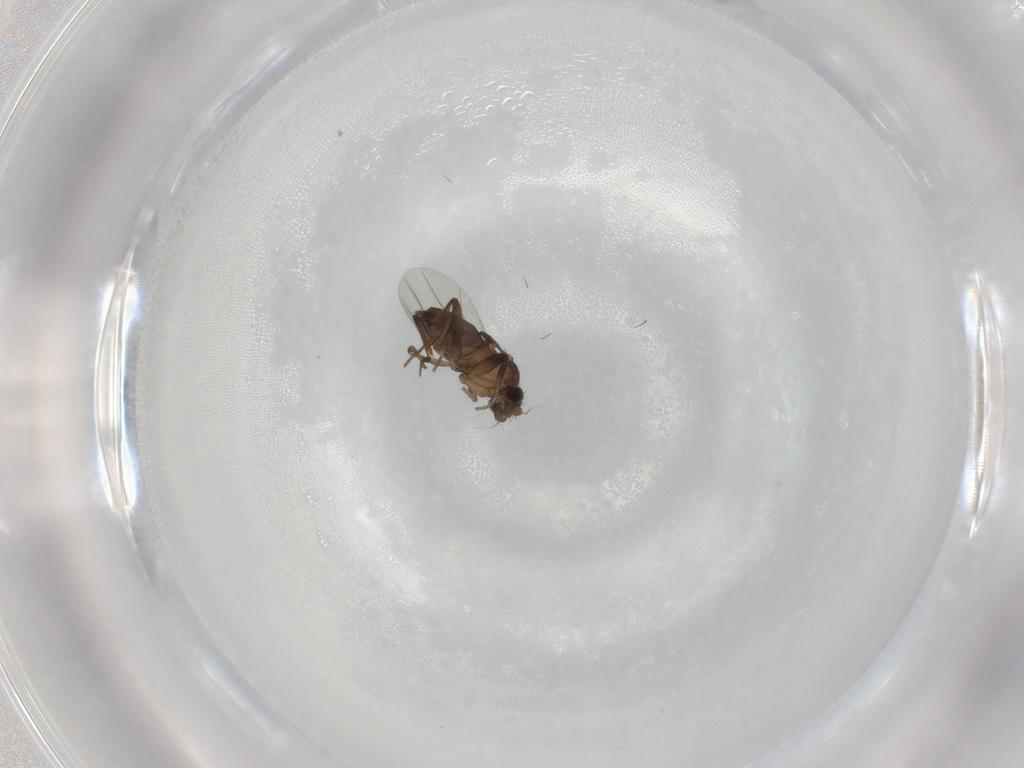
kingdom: Animalia
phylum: Arthropoda
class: Insecta
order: Diptera
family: Phoridae
